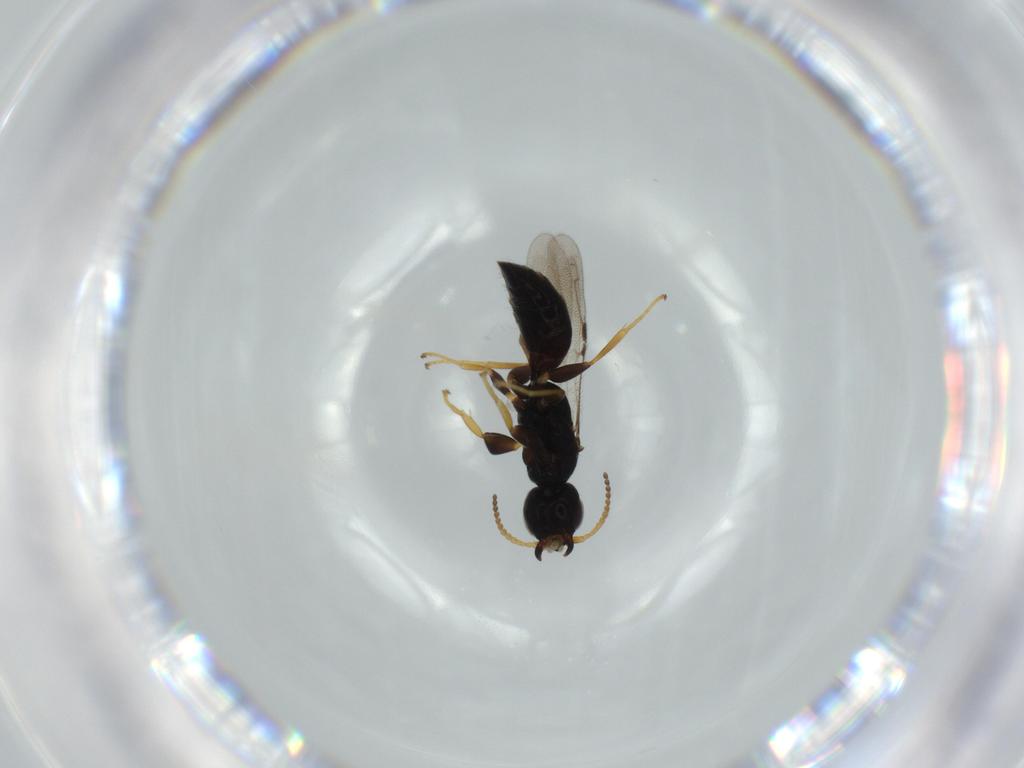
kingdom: Animalia
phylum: Arthropoda
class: Insecta
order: Hymenoptera
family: Bethylidae
